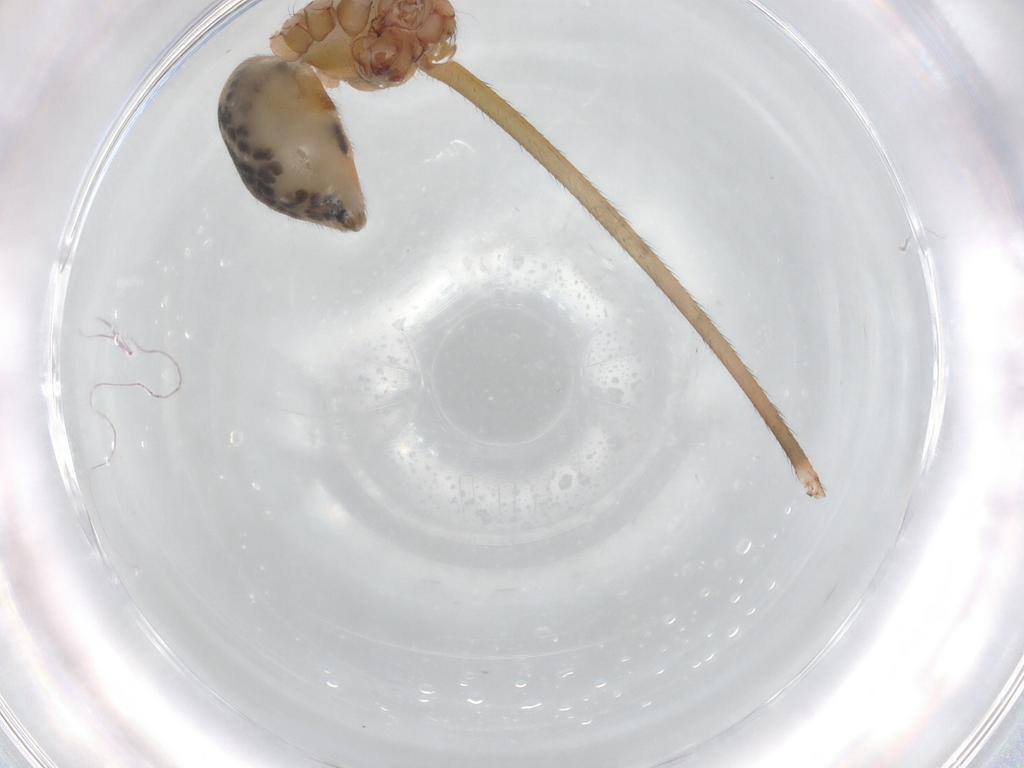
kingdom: Animalia
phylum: Arthropoda
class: Arachnida
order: Araneae
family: Pholcidae
